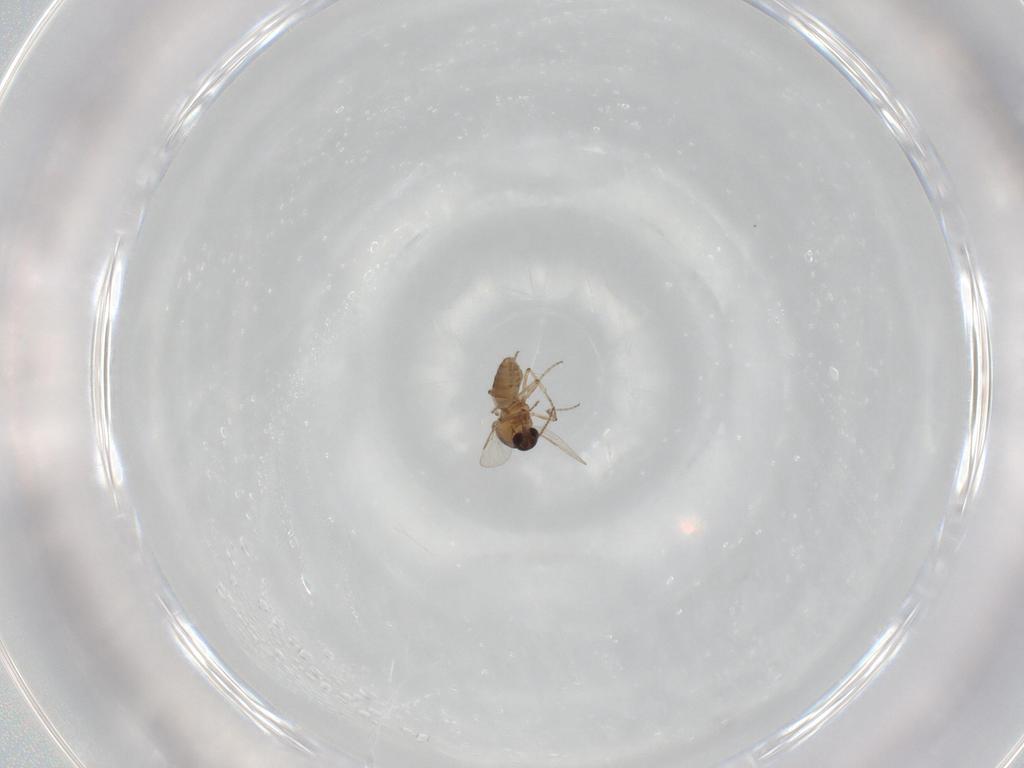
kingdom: Animalia
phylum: Arthropoda
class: Insecta
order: Diptera
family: Ceratopogonidae
